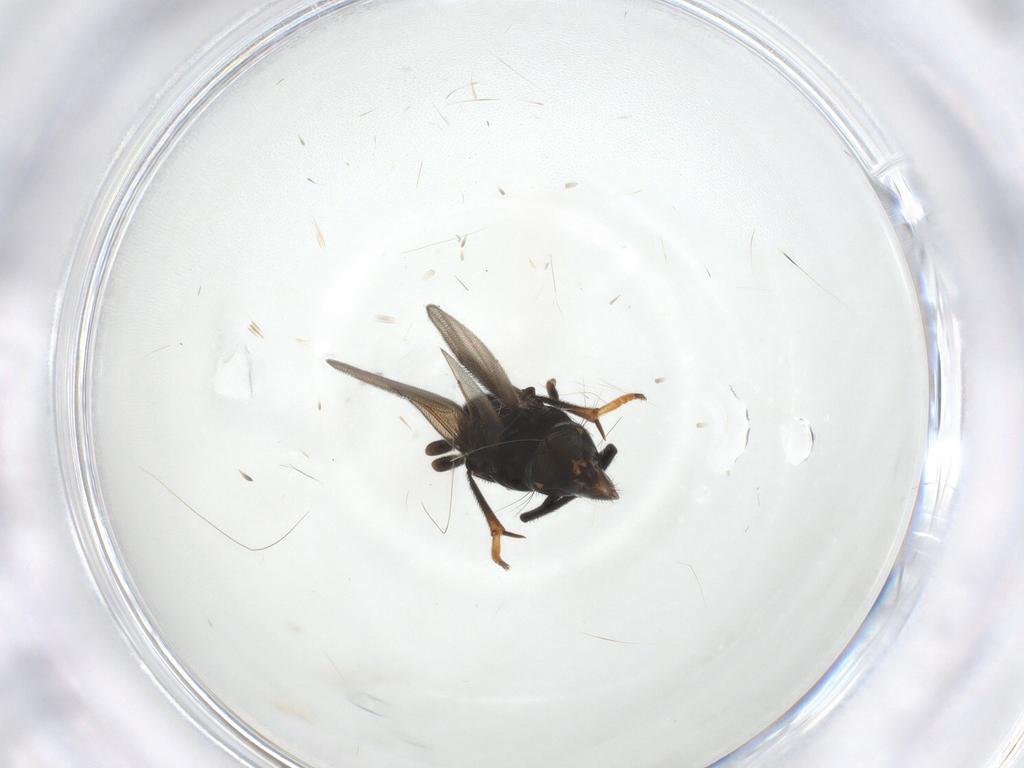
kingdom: Animalia
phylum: Arthropoda
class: Insecta
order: Hymenoptera
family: Encyrtidae
